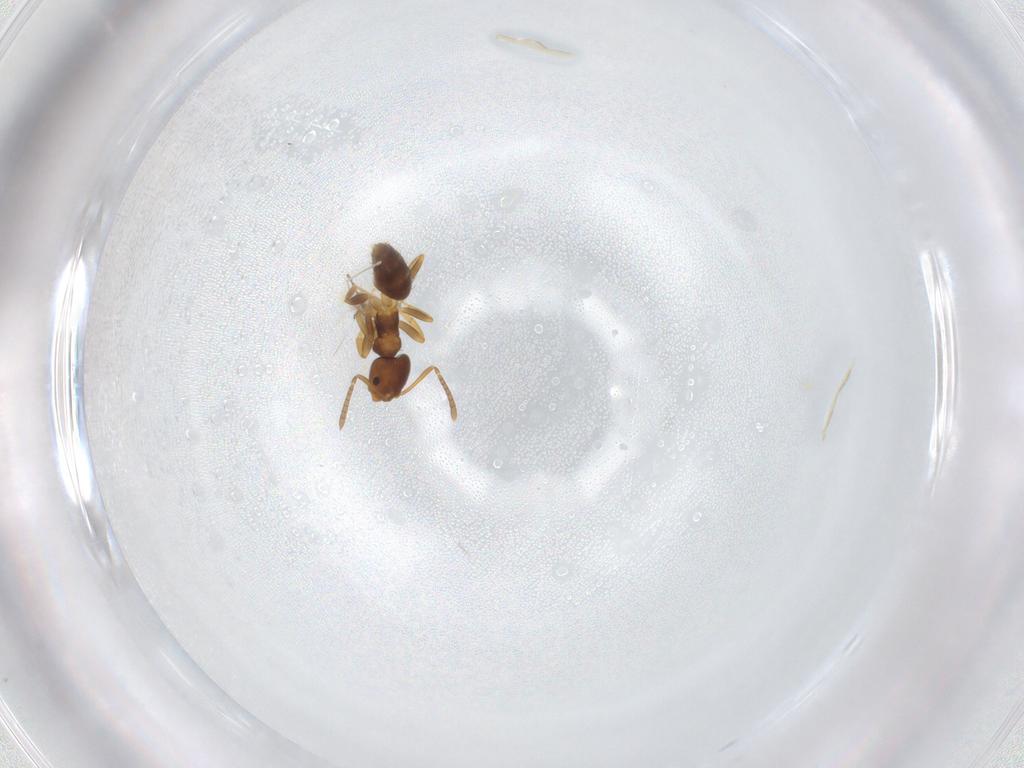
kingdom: Animalia
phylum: Arthropoda
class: Insecta
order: Hymenoptera
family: Formicidae
